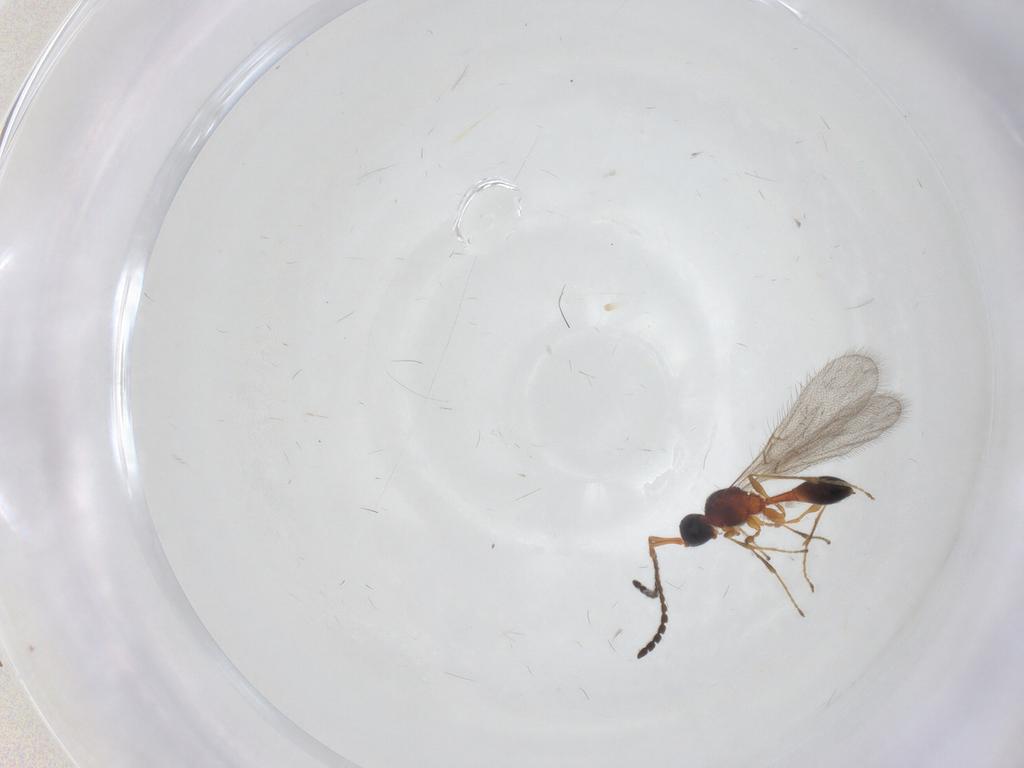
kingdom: Animalia
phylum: Arthropoda
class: Insecta
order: Hymenoptera
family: Diapriidae
